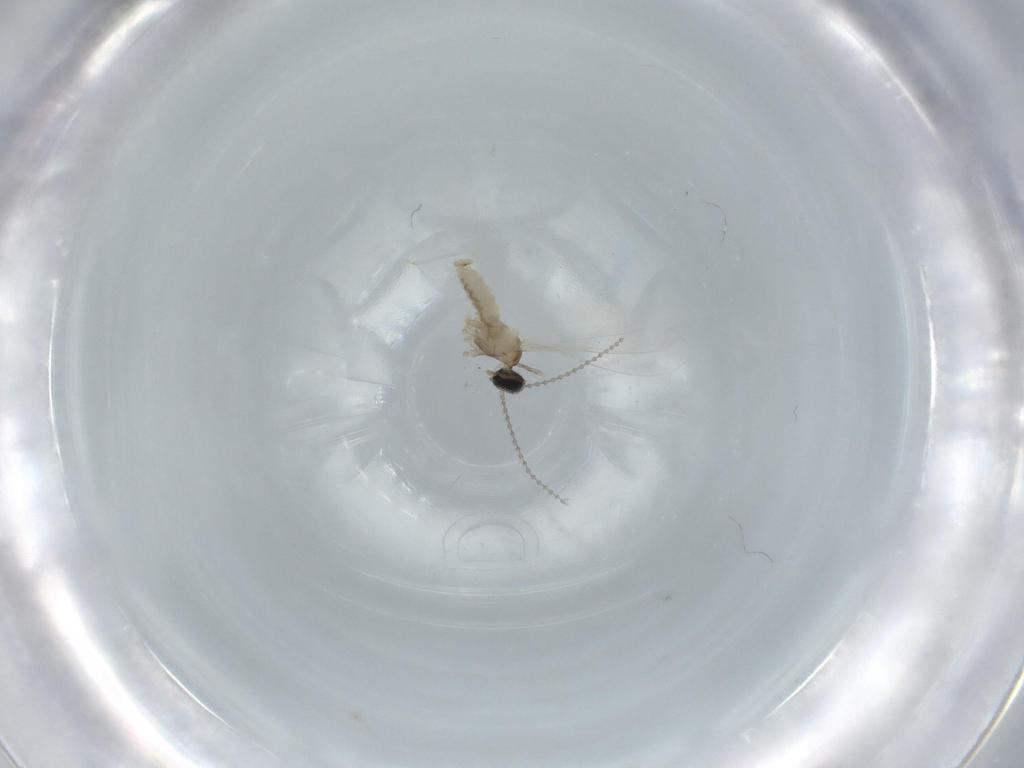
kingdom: Animalia
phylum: Arthropoda
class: Insecta
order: Diptera
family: Cecidomyiidae
